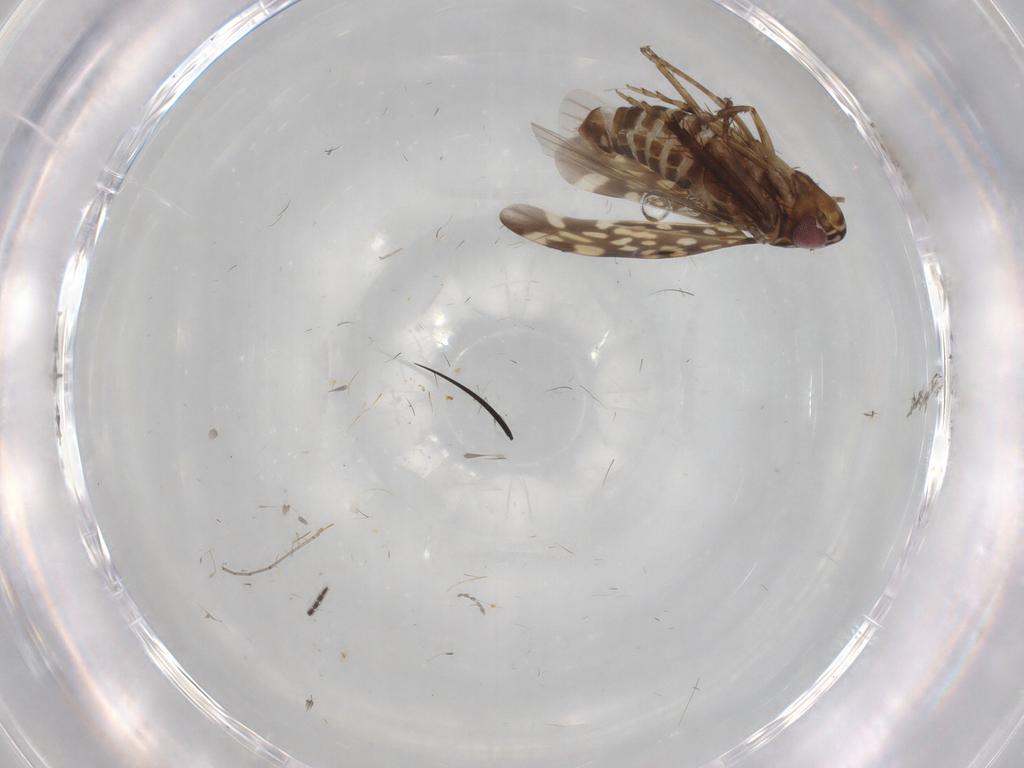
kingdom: Animalia
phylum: Arthropoda
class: Insecta
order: Hemiptera
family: Cicadellidae
